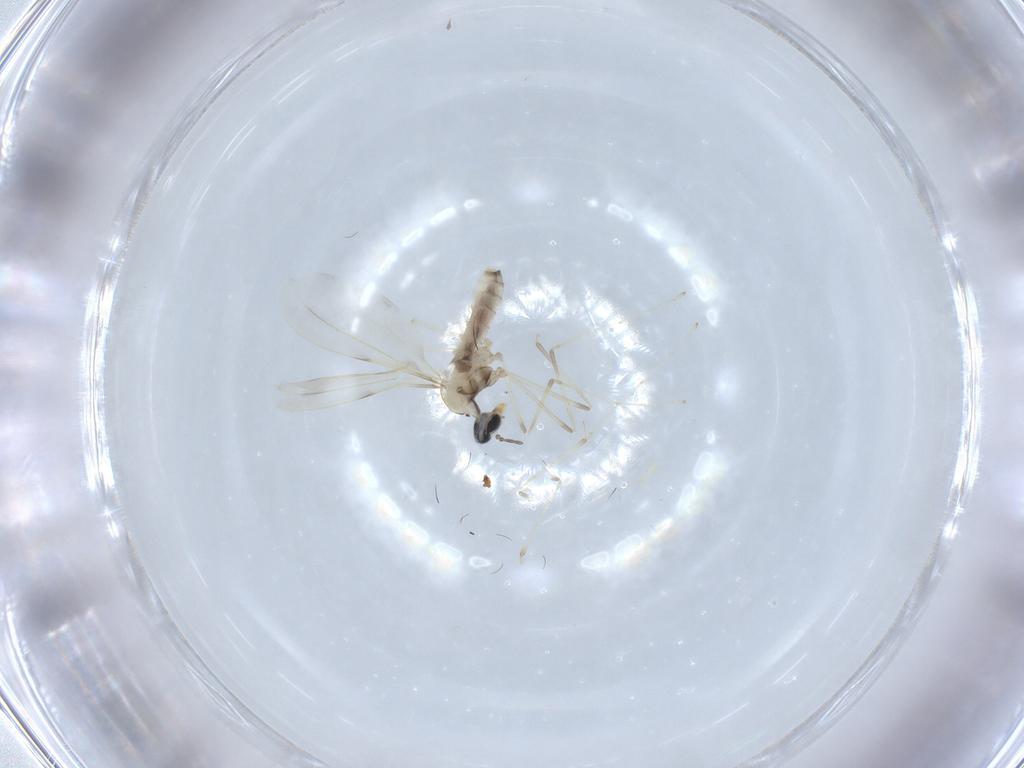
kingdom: Animalia
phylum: Arthropoda
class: Insecta
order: Diptera
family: Cecidomyiidae
